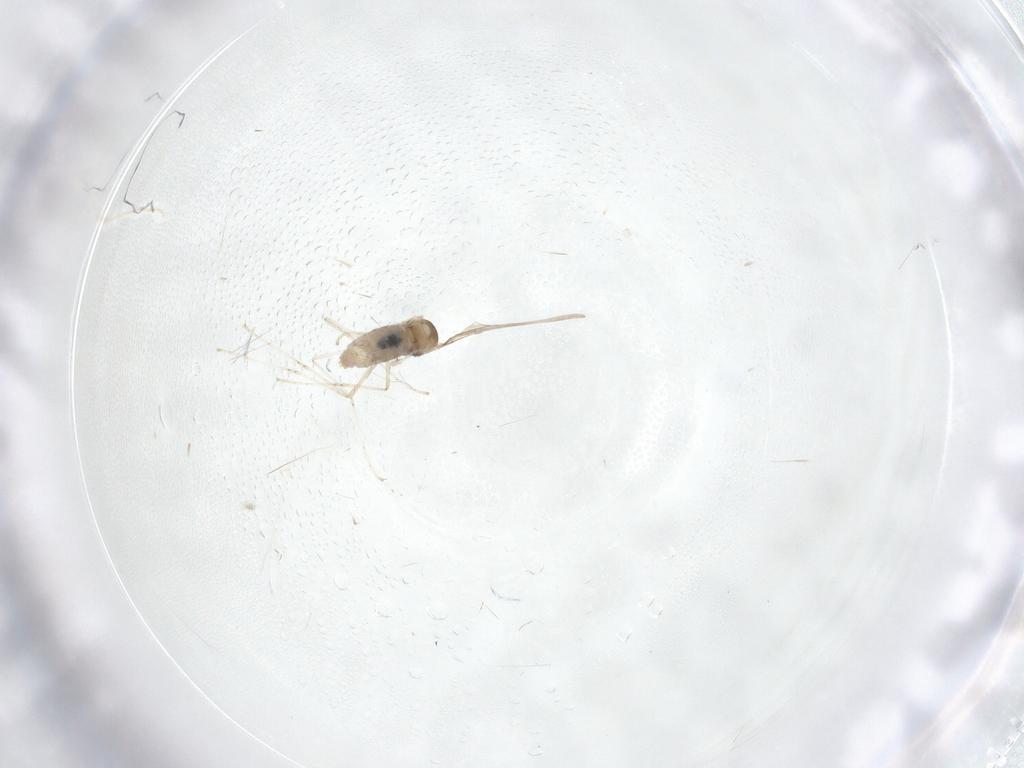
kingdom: Animalia
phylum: Arthropoda
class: Insecta
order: Diptera
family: Cecidomyiidae
